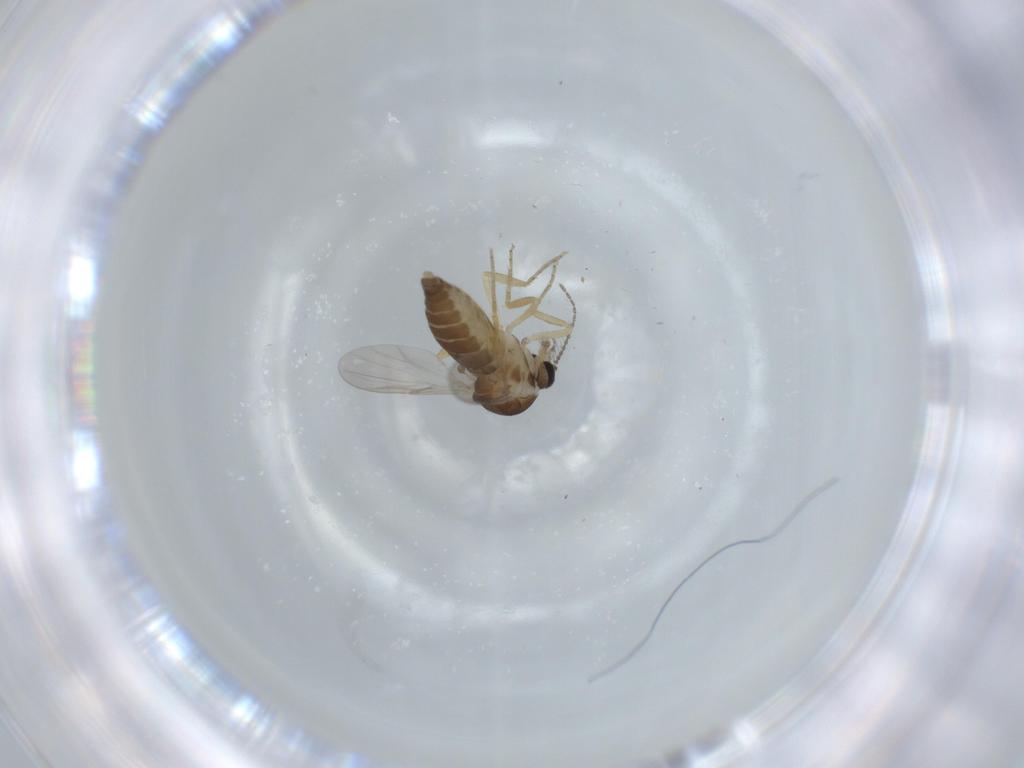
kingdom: Animalia
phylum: Arthropoda
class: Insecta
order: Diptera
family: Ceratopogonidae
